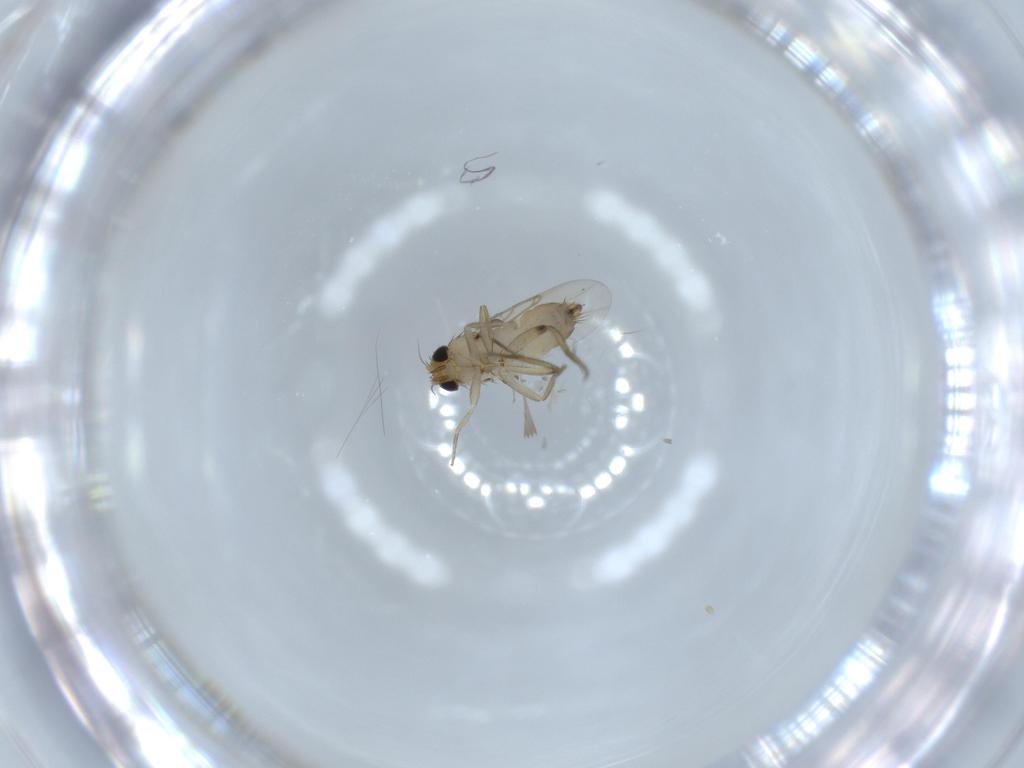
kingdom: Animalia
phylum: Arthropoda
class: Insecta
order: Diptera
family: Phoridae
